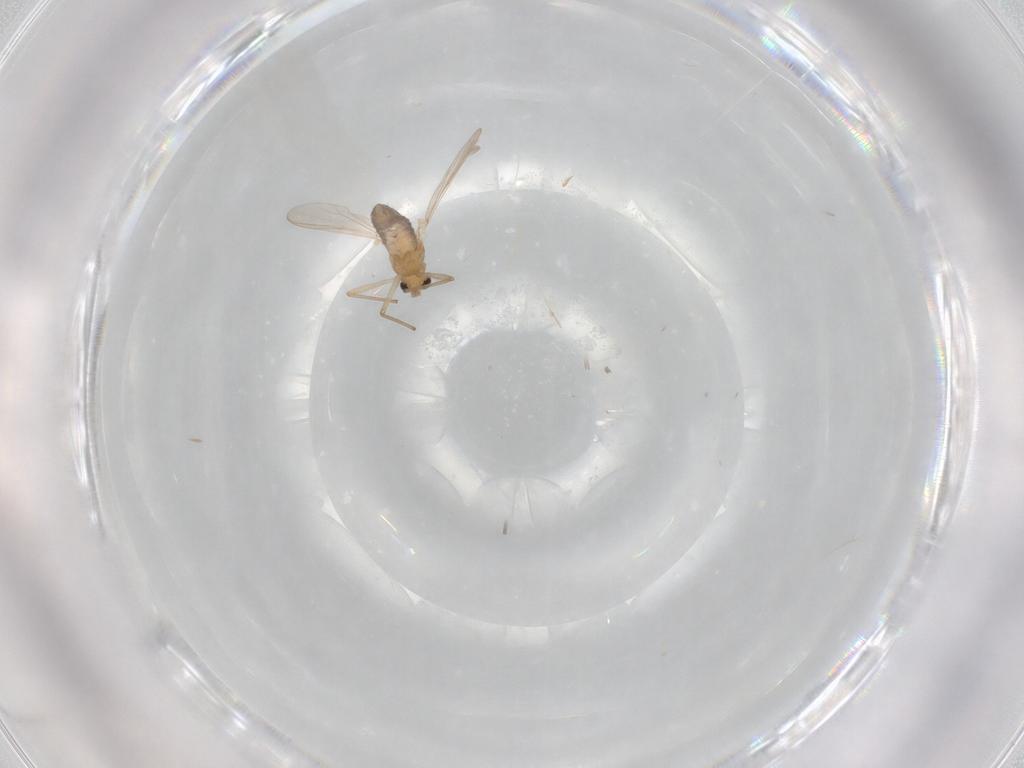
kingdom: Animalia
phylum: Arthropoda
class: Insecta
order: Diptera
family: Chironomidae
